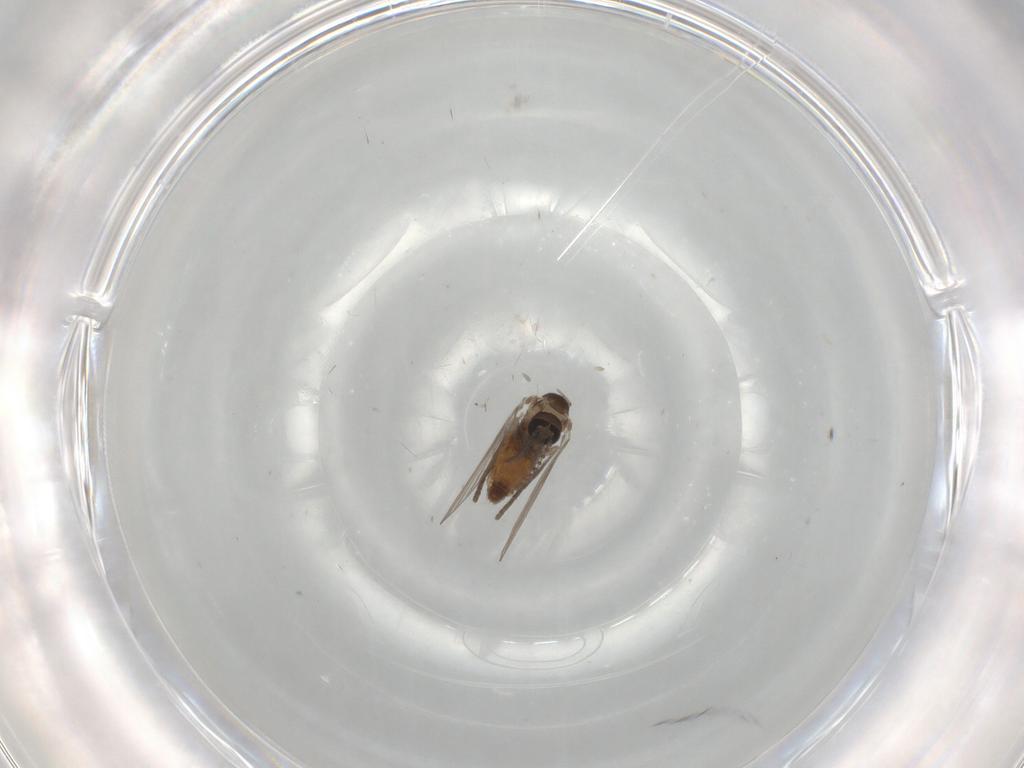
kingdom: Animalia
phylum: Arthropoda
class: Insecta
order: Diptera
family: Psychodidae
